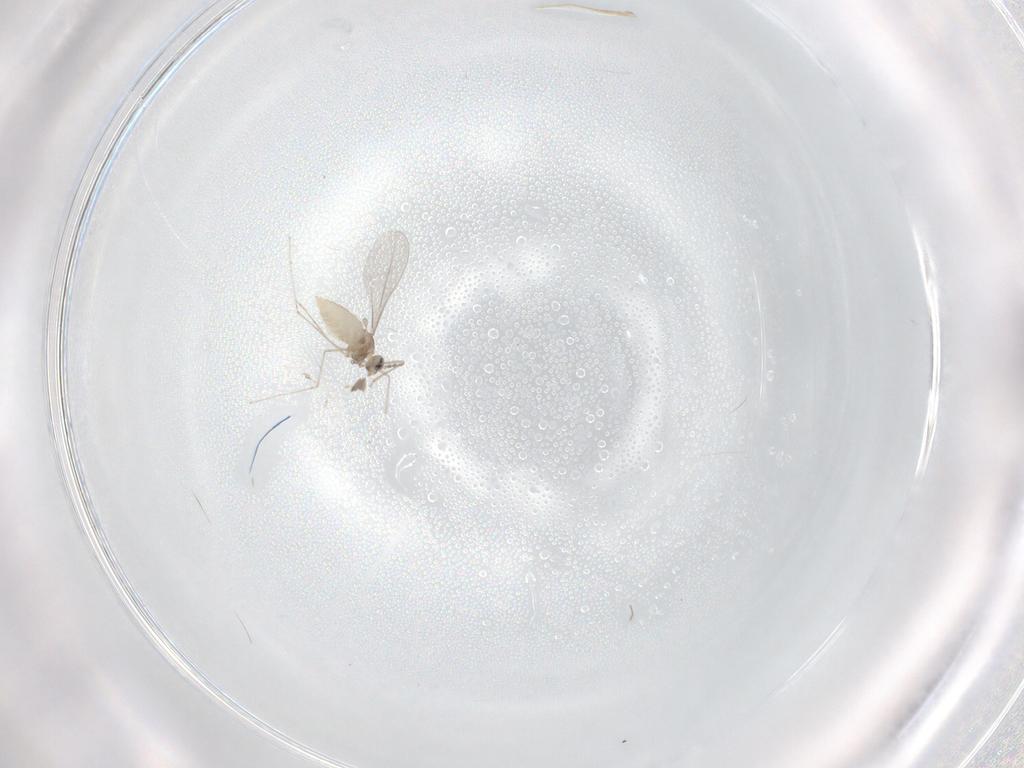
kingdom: Animalia
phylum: Arthropoda
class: Insecta
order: Diptera
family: Cecidomyiidae
